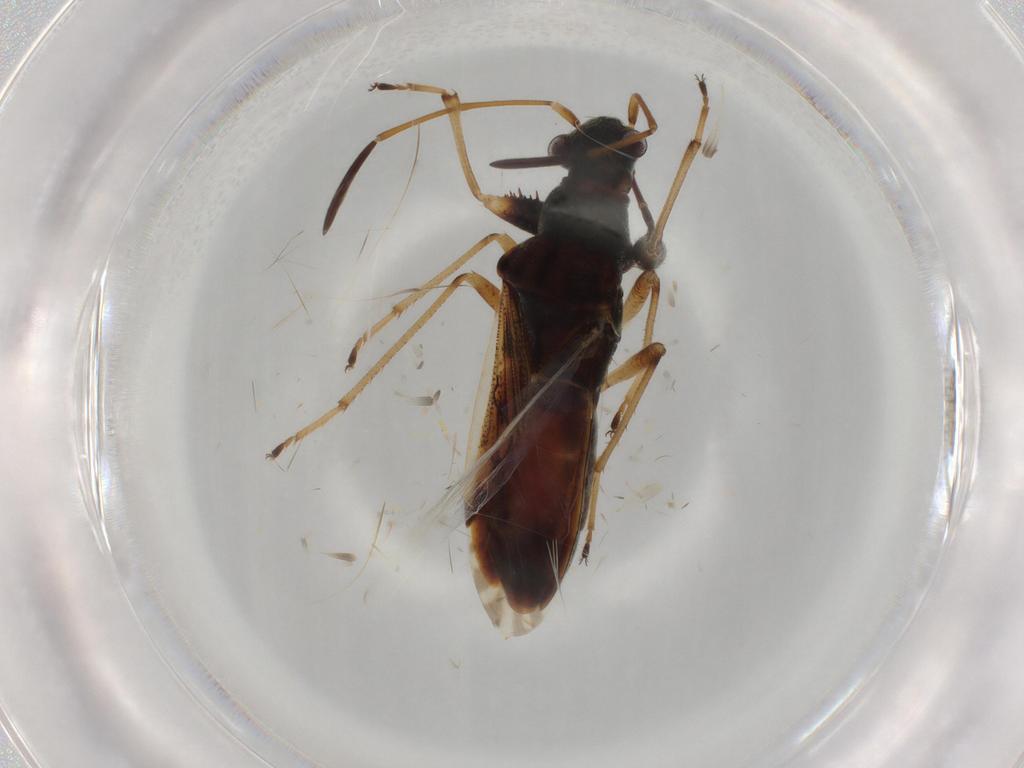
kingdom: Animalia
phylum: Arthropoda
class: Insecta
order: Hemiptera
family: Rhyparochromidae
